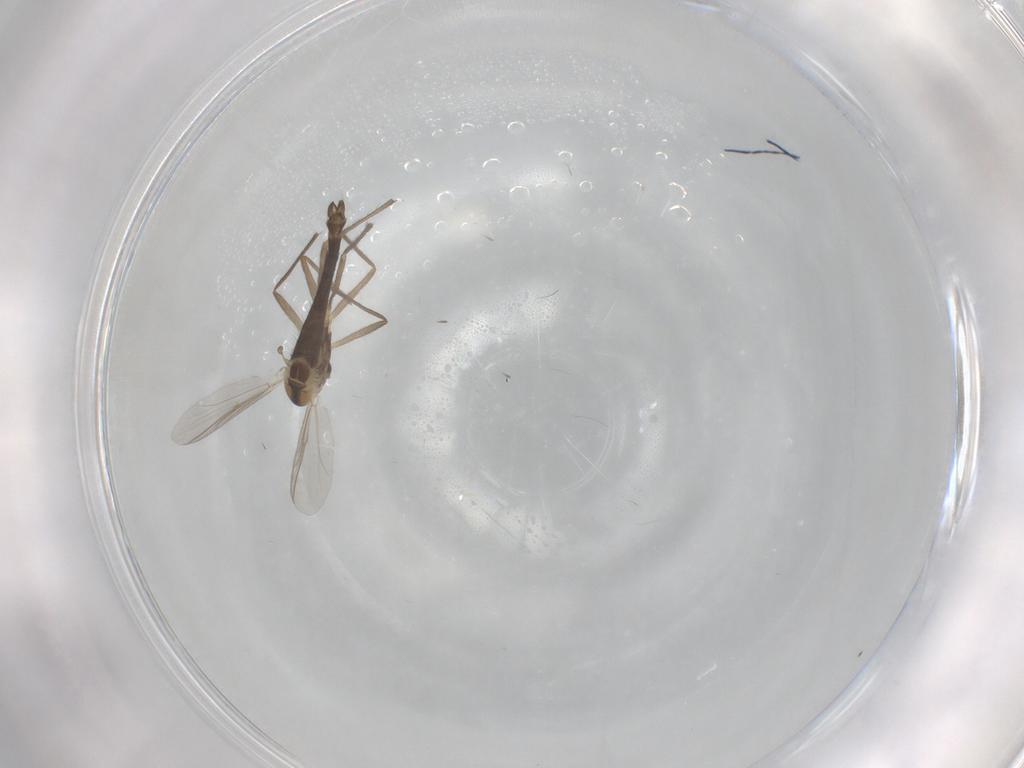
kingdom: Animalia
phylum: Arthropoda
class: Insecta
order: Diptera
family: Chironomidae
